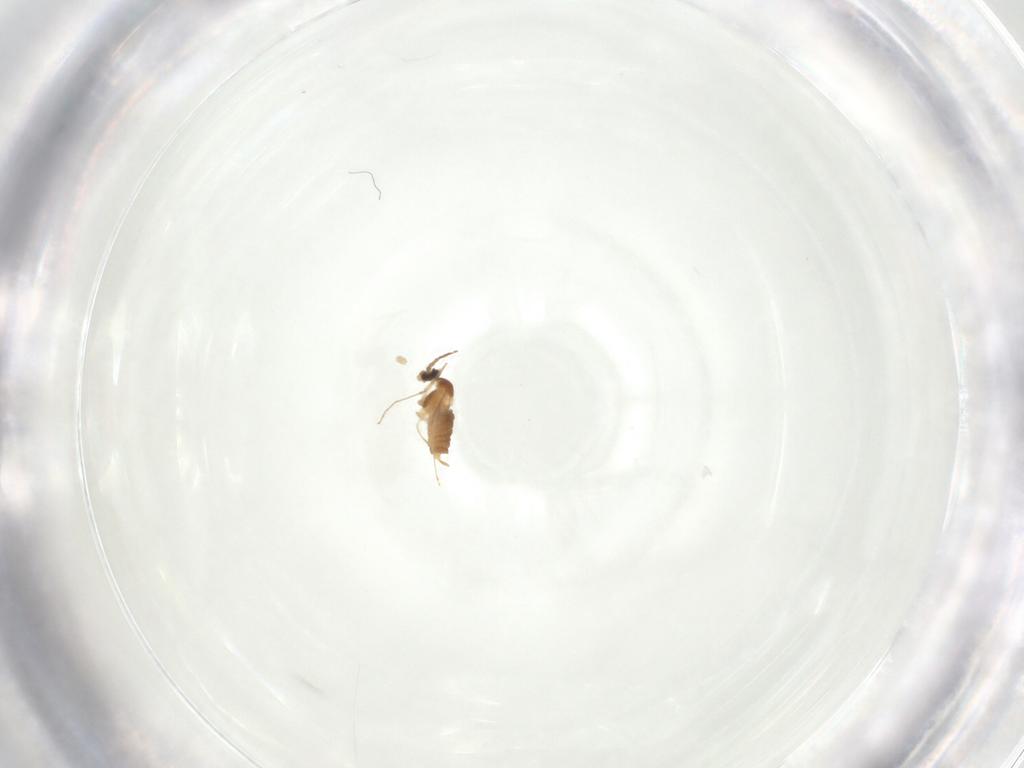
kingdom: Animalia
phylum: Arthropoda
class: Insecta
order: Diptera
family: Cecidomyiidae
